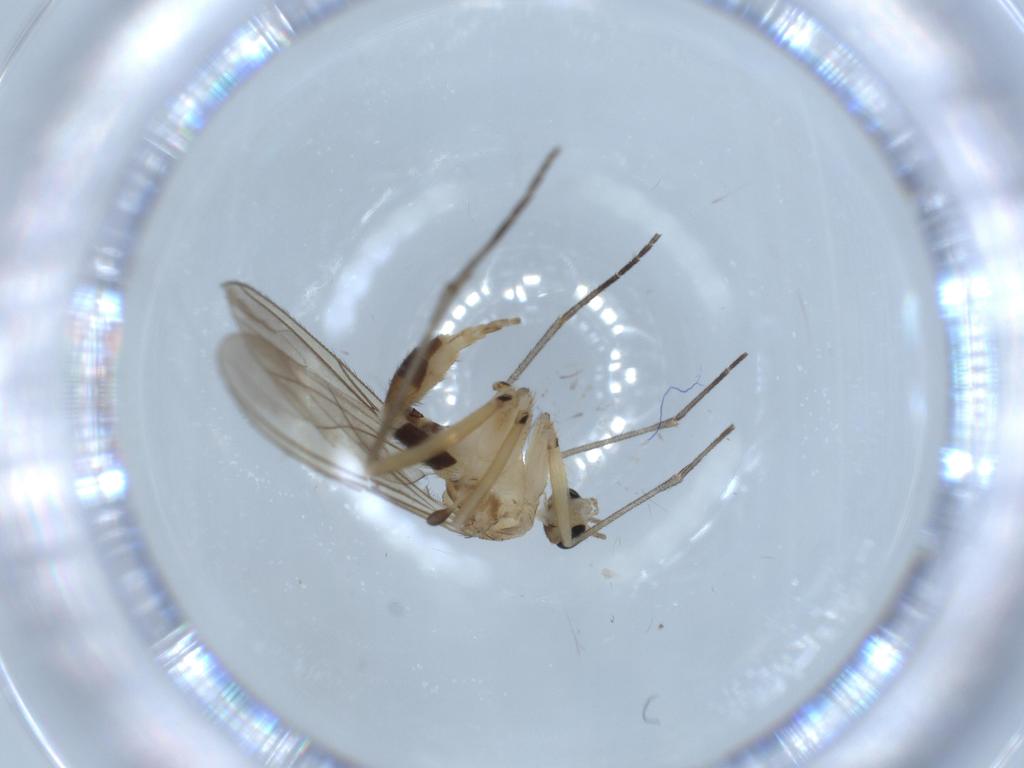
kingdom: Animalia
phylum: Arthropoda
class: Insecta
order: Diptera
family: Sciaridae
